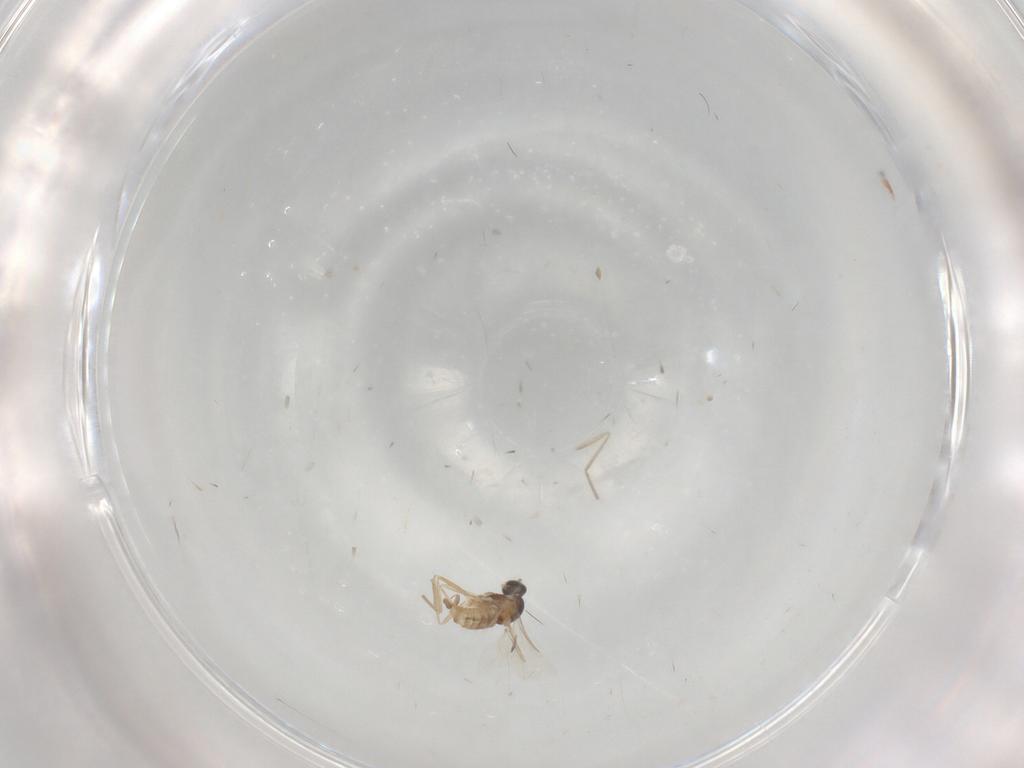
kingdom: Animalia
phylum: Arthropoda
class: Insecta
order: Diptera
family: Cecidomyiidae
